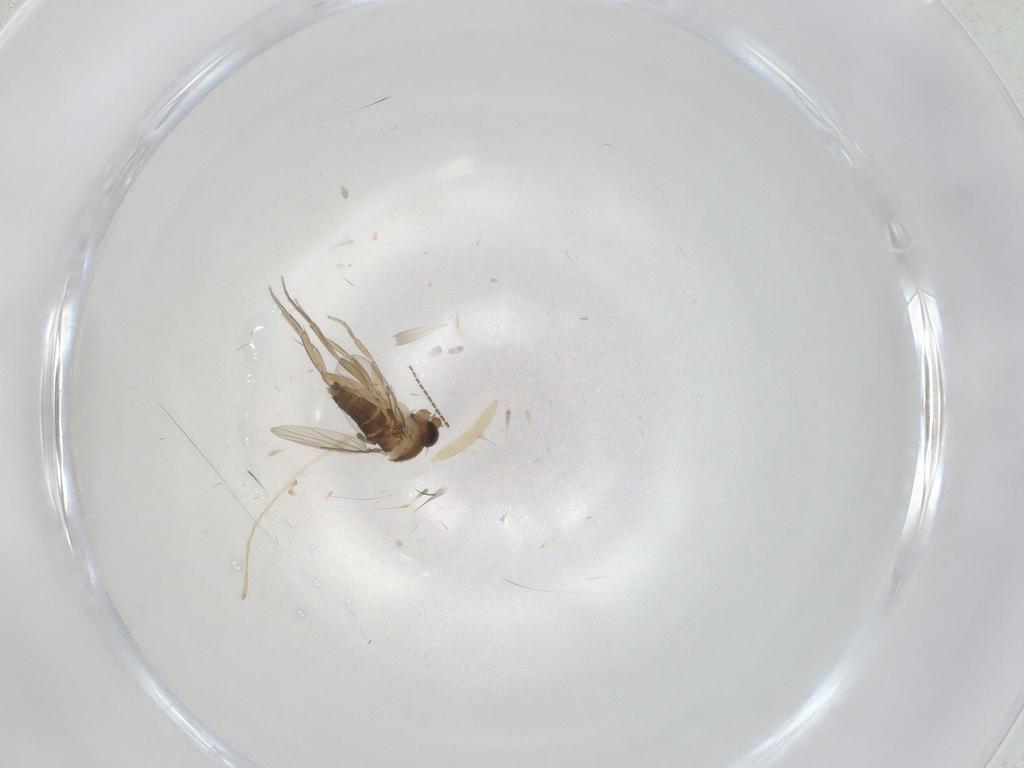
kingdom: Animalia
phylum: Arthropoda
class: Insecta
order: Diptera
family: Phoridae
